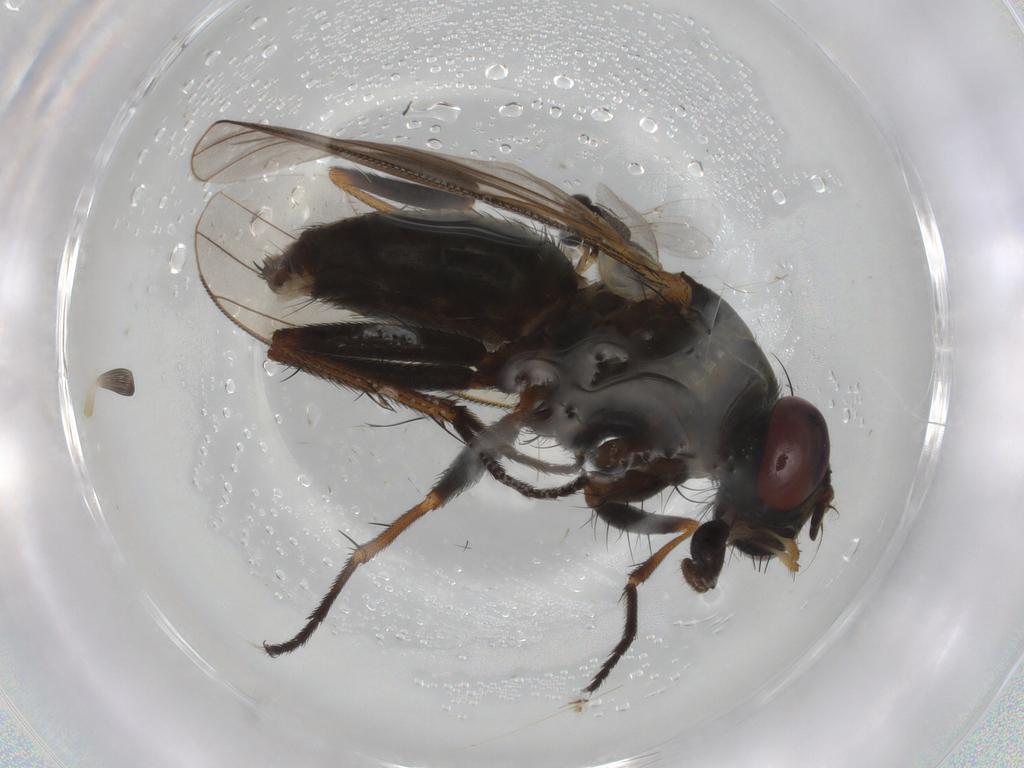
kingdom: Animalia
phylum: Arthropoda
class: Insecta
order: Diptera
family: Muscidae
